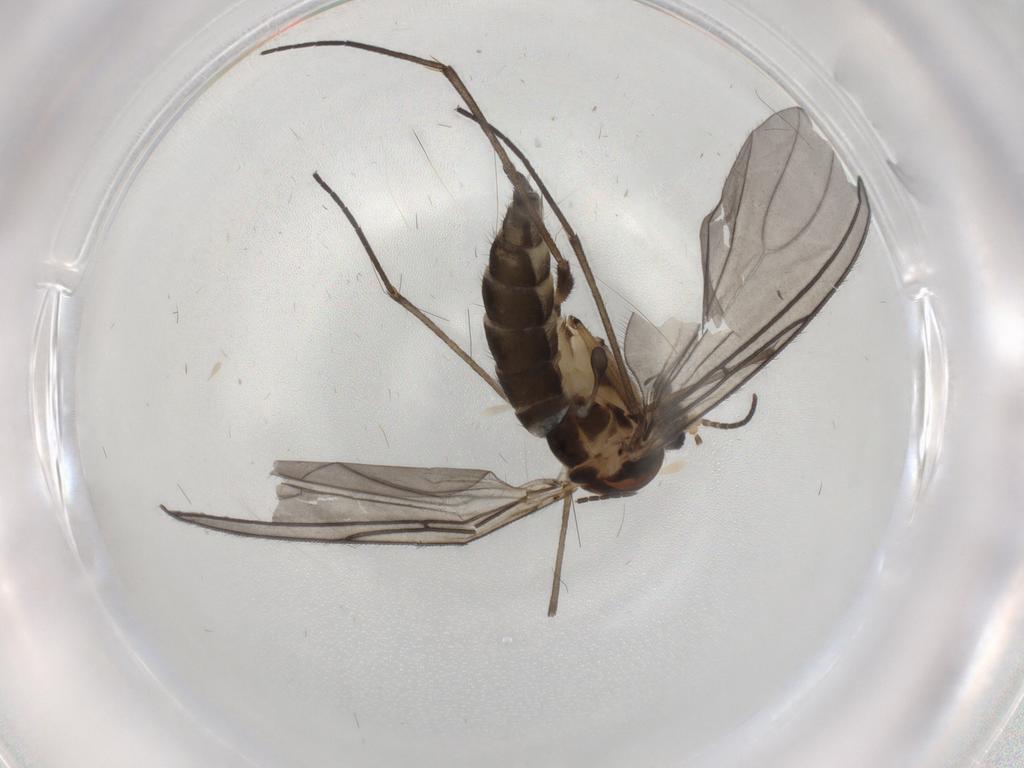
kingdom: Animalia
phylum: Arthropoda
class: Insecta
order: Diptera
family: Sciaridae
